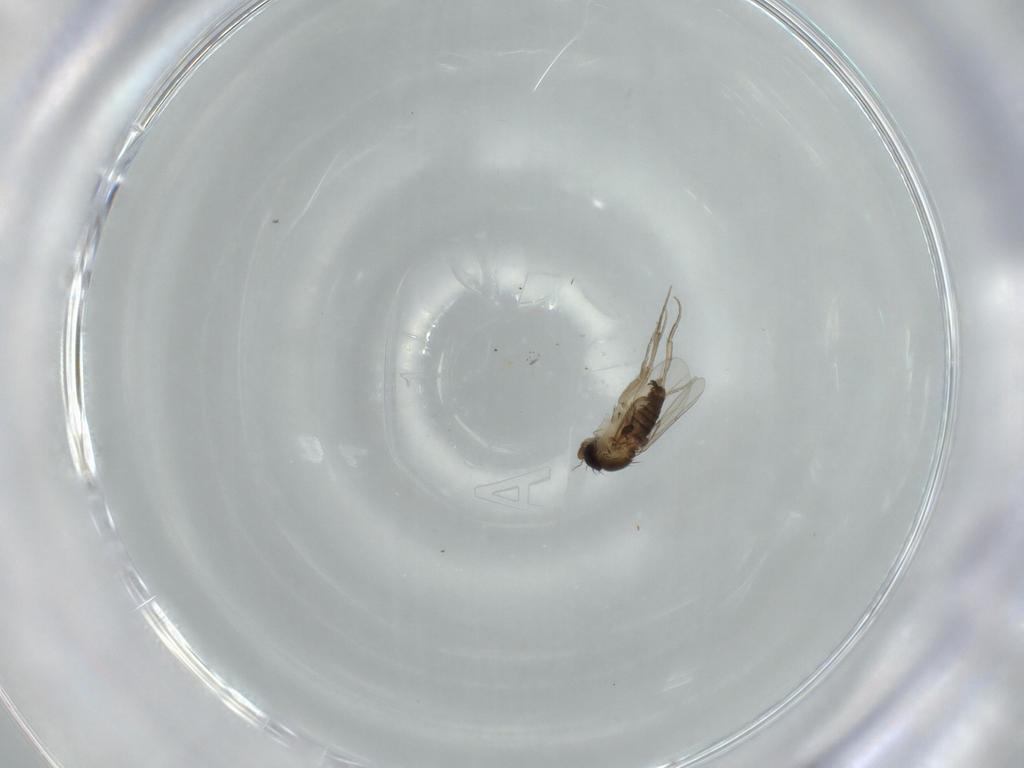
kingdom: Animalia
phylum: Arthropoda
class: Insecta
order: Diptera
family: Phoridae
